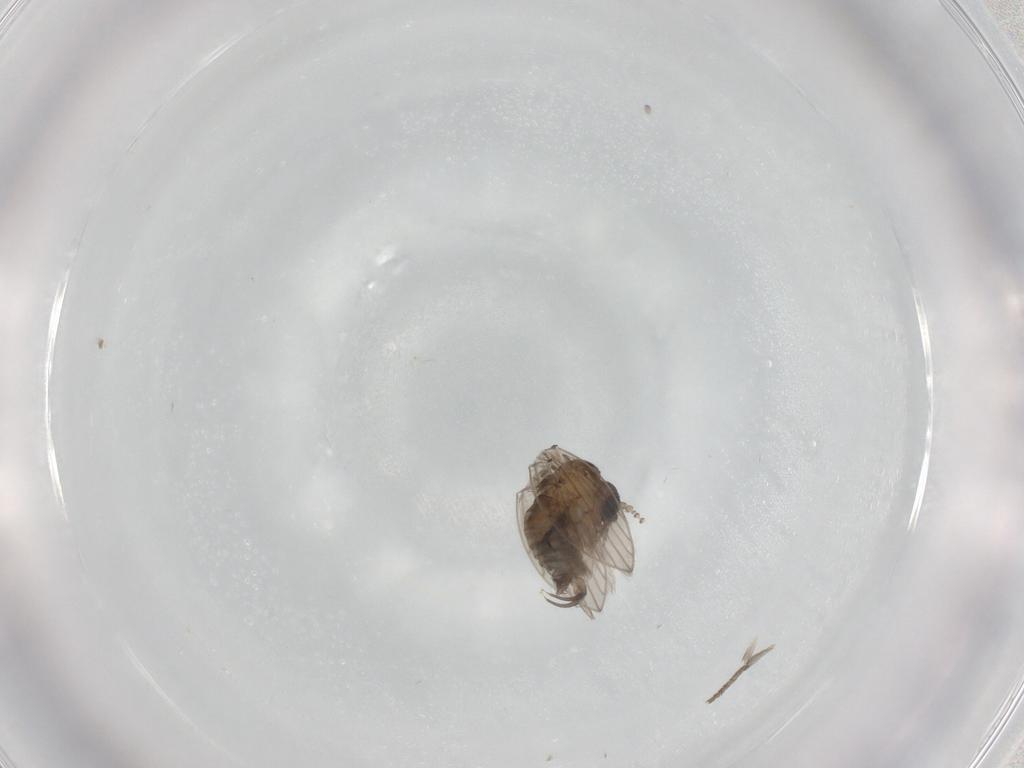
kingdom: Animalia
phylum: Arthropoda
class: Insecta
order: Diptera
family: Psychodidae
